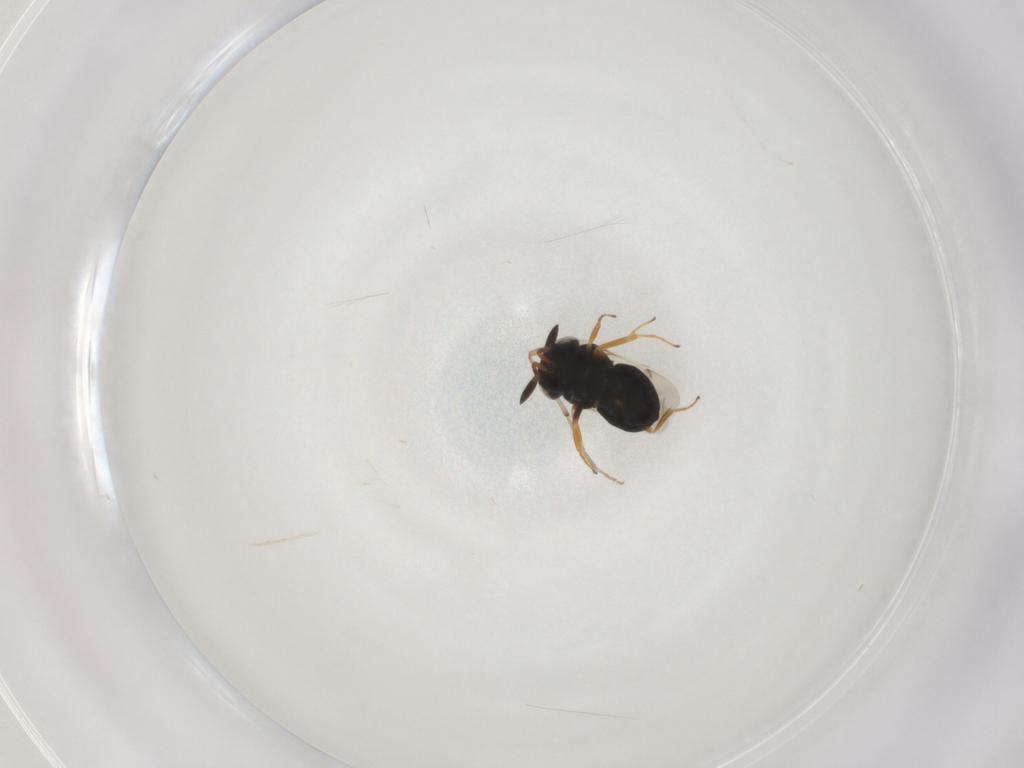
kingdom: Animalia
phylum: Arthropoda
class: Insecta
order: Hymenoptera
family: Scelionidae
